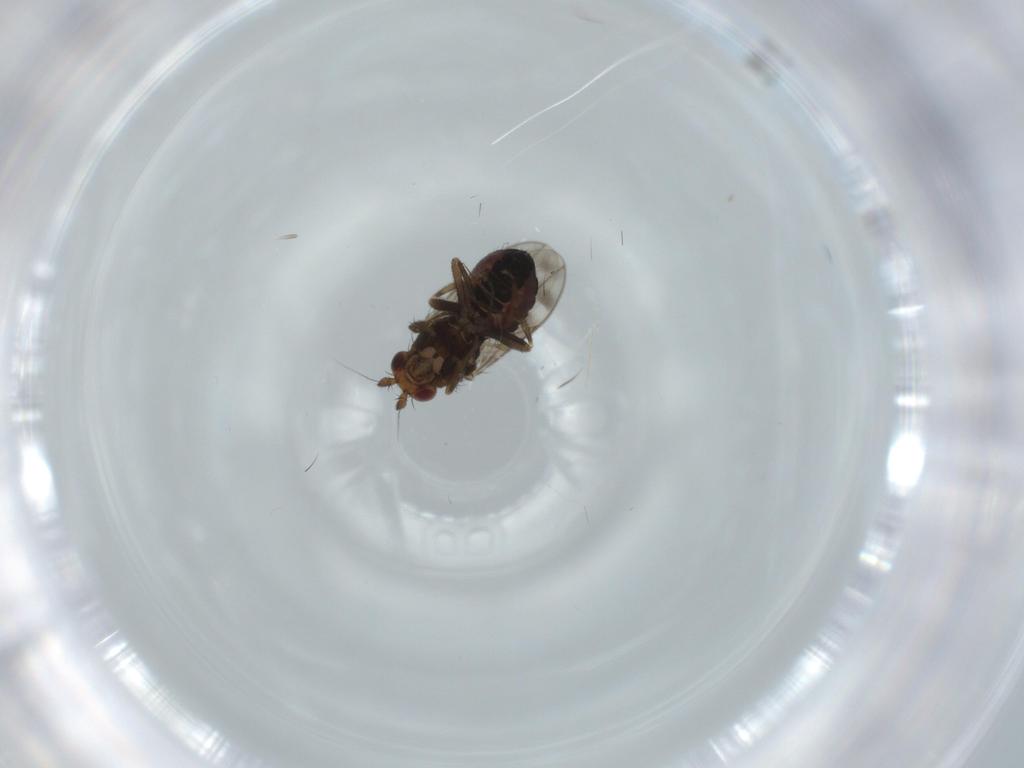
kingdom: Animalia
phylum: Arthropoda
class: Insecta
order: Diptera
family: Sphaeroceridae
